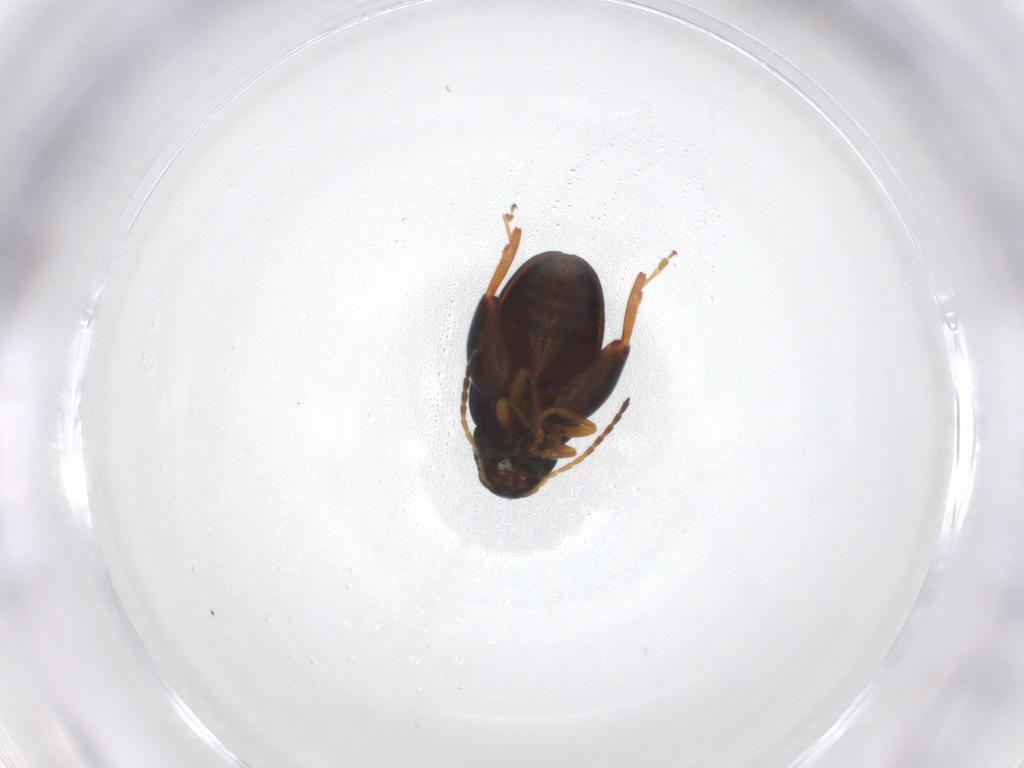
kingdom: Animalia
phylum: Arthropoda
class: Insecta
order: Coleoptera
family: Chrysomelidae
